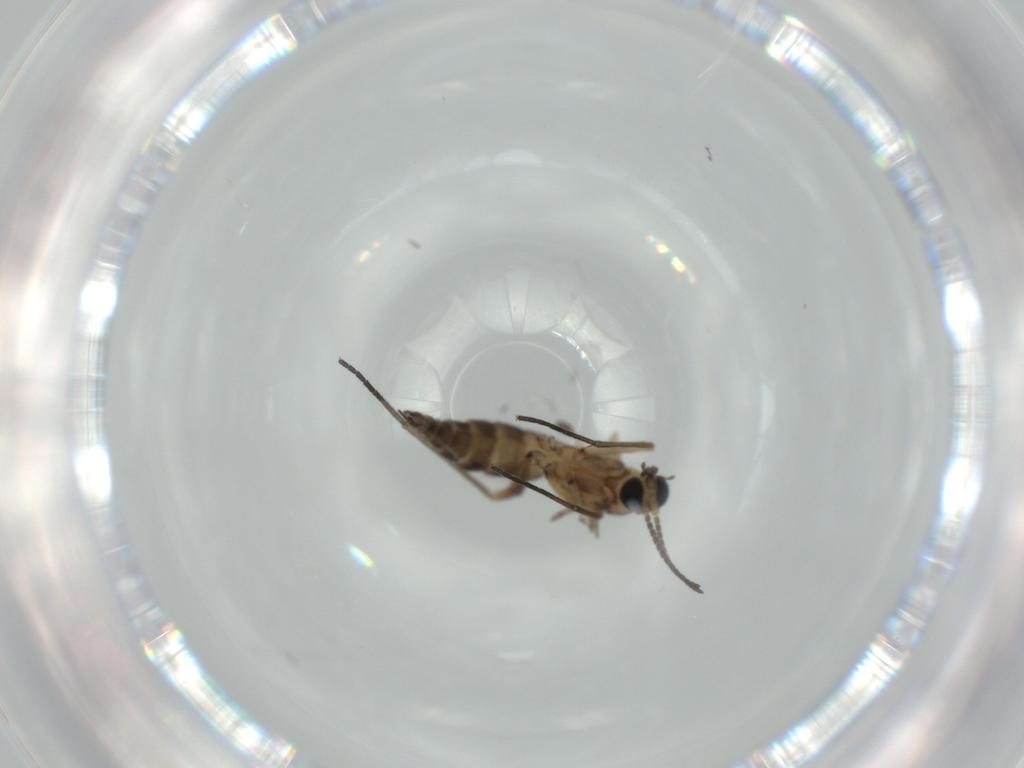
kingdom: Animalia
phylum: Arthropoda
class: Insecta
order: Diptera
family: Sciaridae
